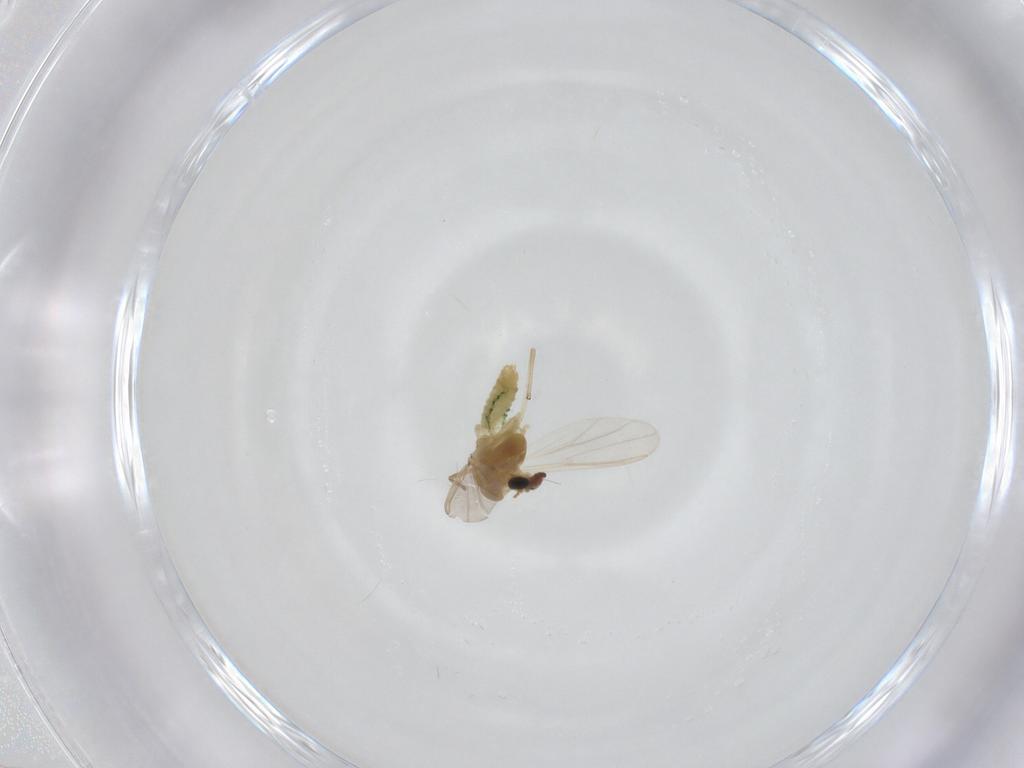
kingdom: Animalia
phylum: Arthropoda
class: Insecta
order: Diptera
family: Chironomidae
